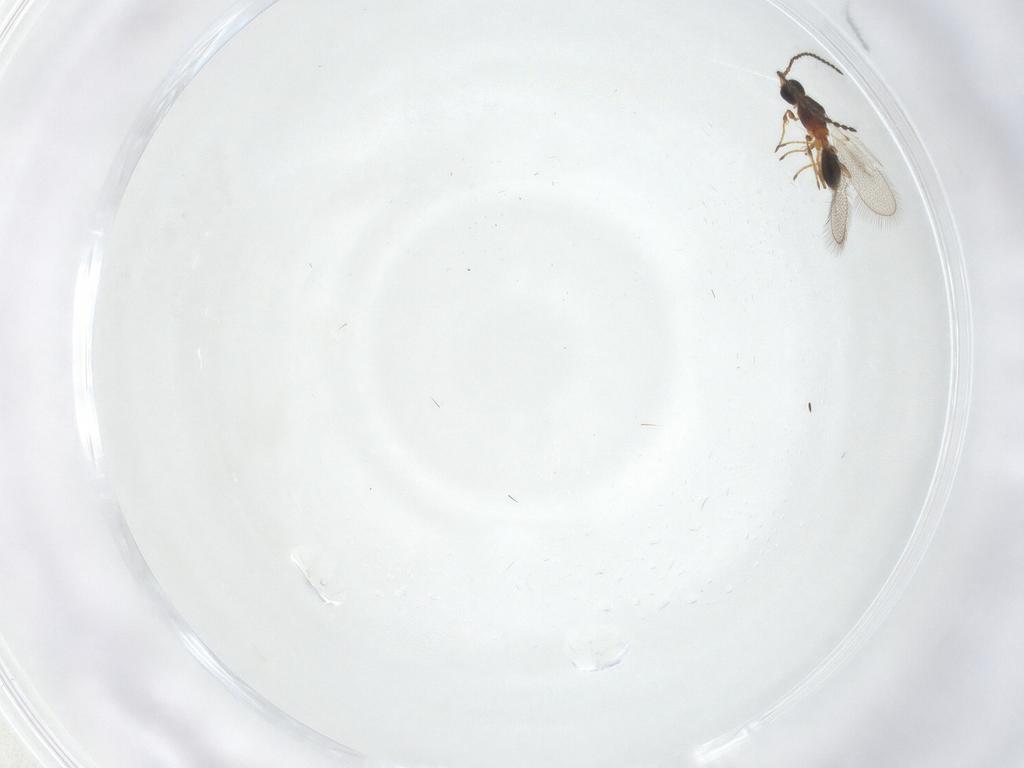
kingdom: Animalia
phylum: Arthropoda
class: Insecta
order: Hymenoptera
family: Diapriidae
